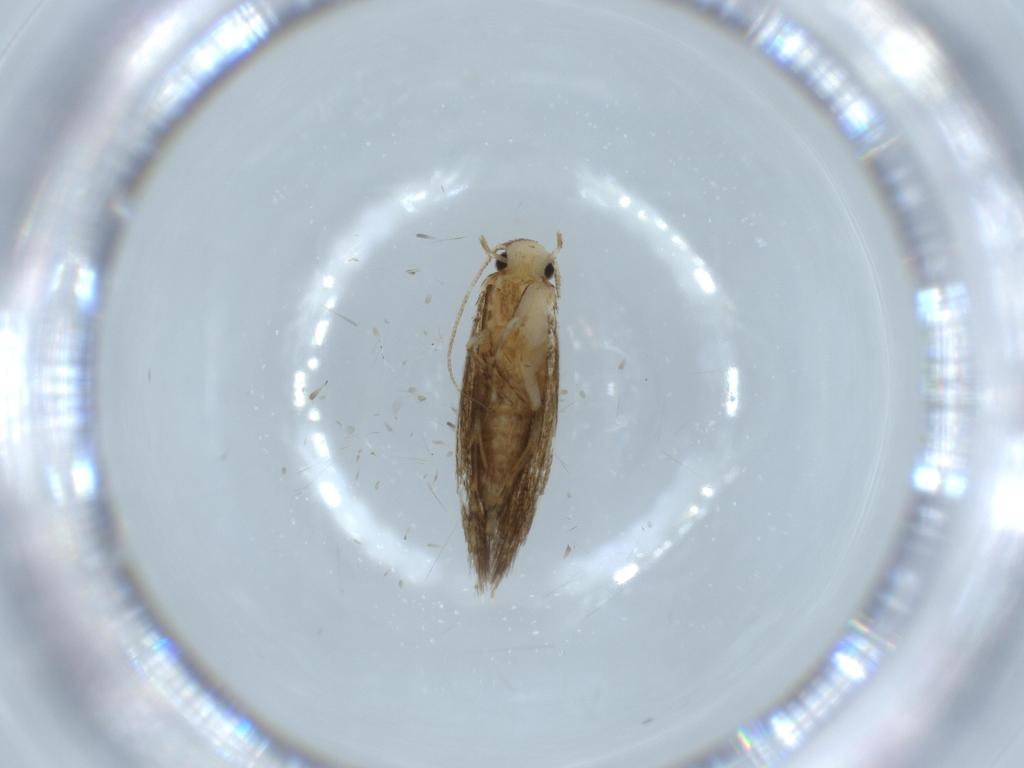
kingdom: Animalia
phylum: Arthropoda
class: Insecta
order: Lepidoptera
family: Tineidae
